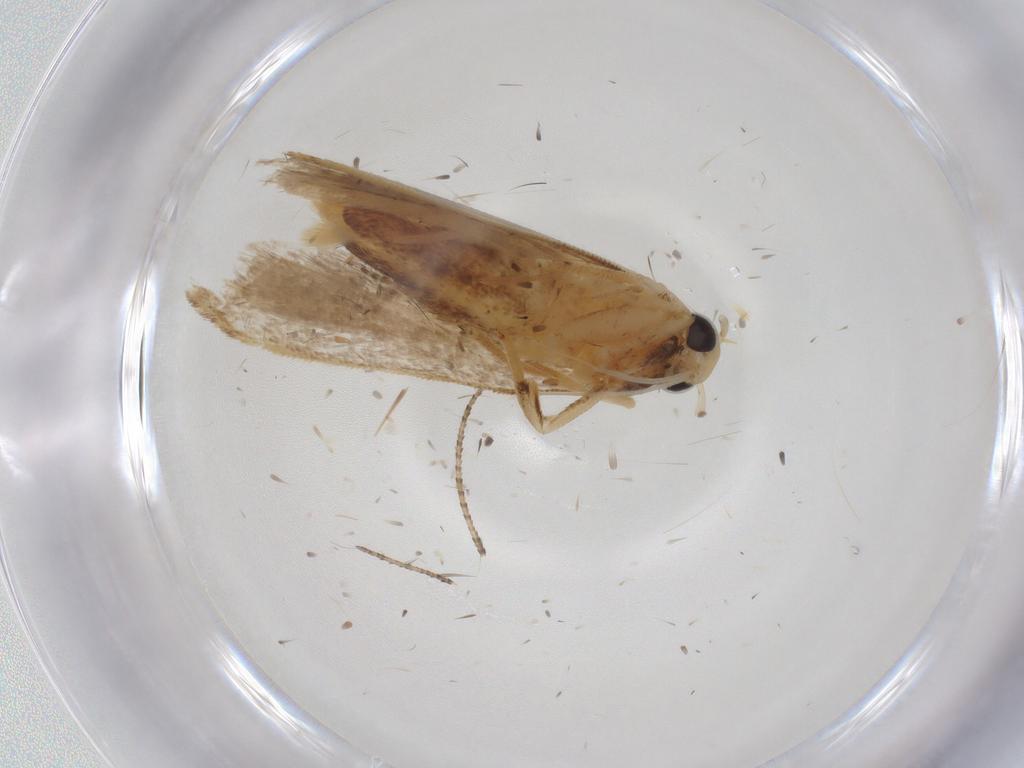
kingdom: Animalia
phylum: Arthropoda
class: Insecta
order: Lepidoptera
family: Gelechiidae
